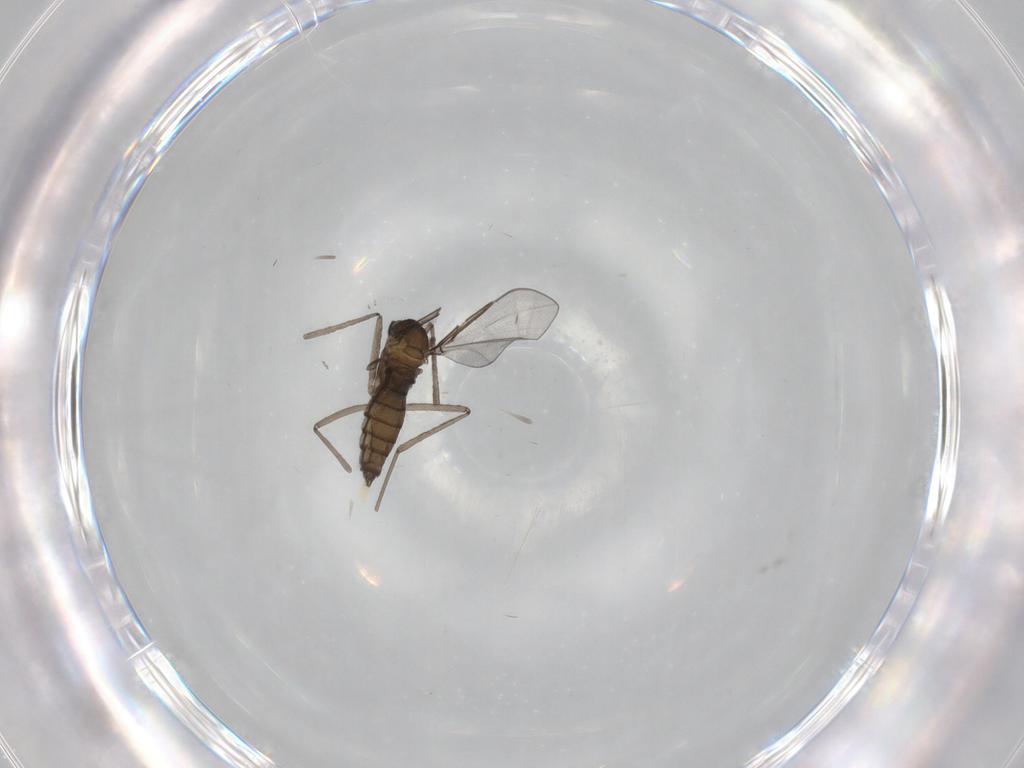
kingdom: Animalia
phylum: Arthropoda
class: Insecta
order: Diptera
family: Cecidomyiidae
